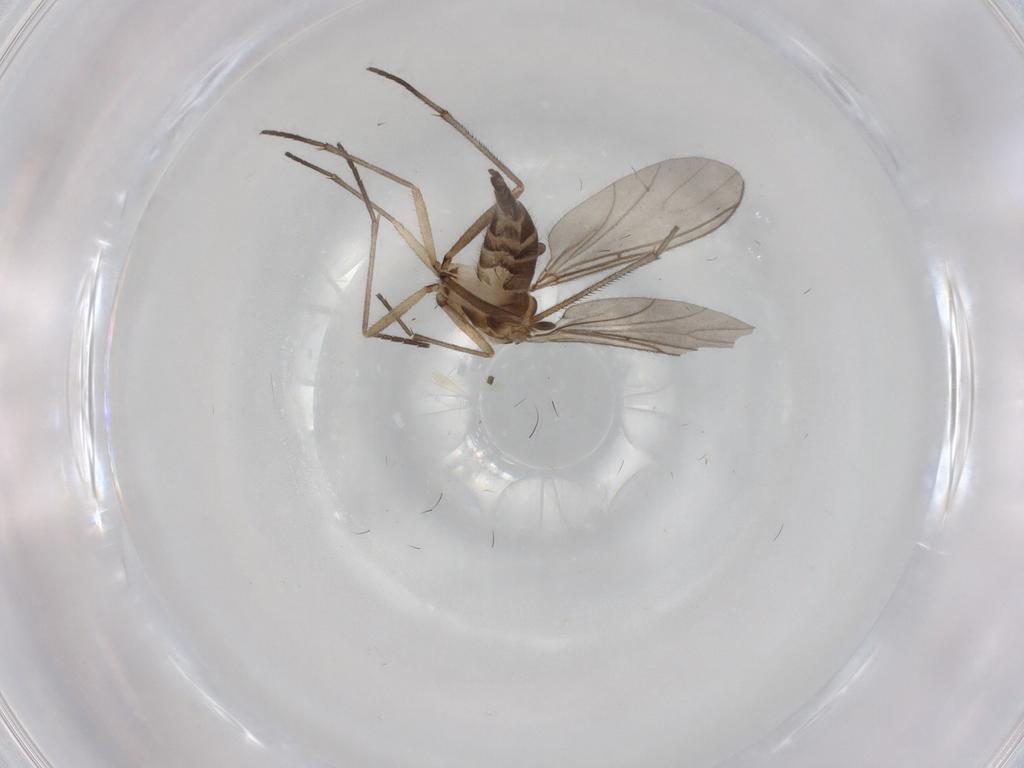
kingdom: Animalia
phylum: Arthropoda
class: Insecta
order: Diptera
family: Sciaridae
